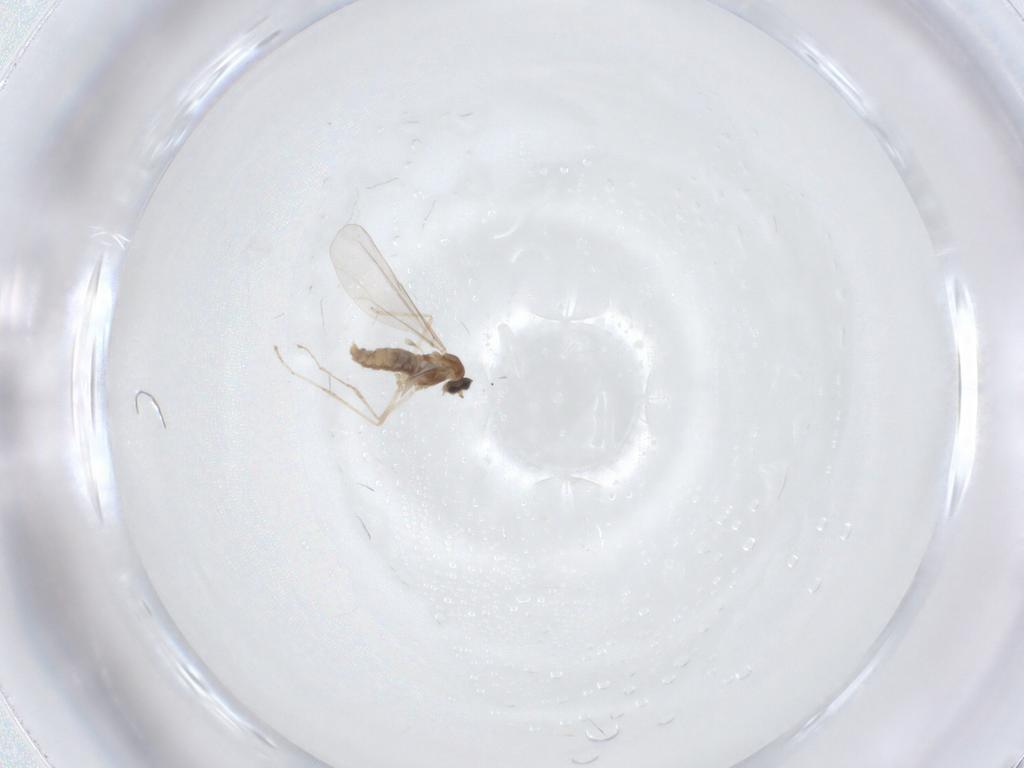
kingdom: Animalia
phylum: Arthropoda
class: Insecta
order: Diptera
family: Cecidomyiidae
